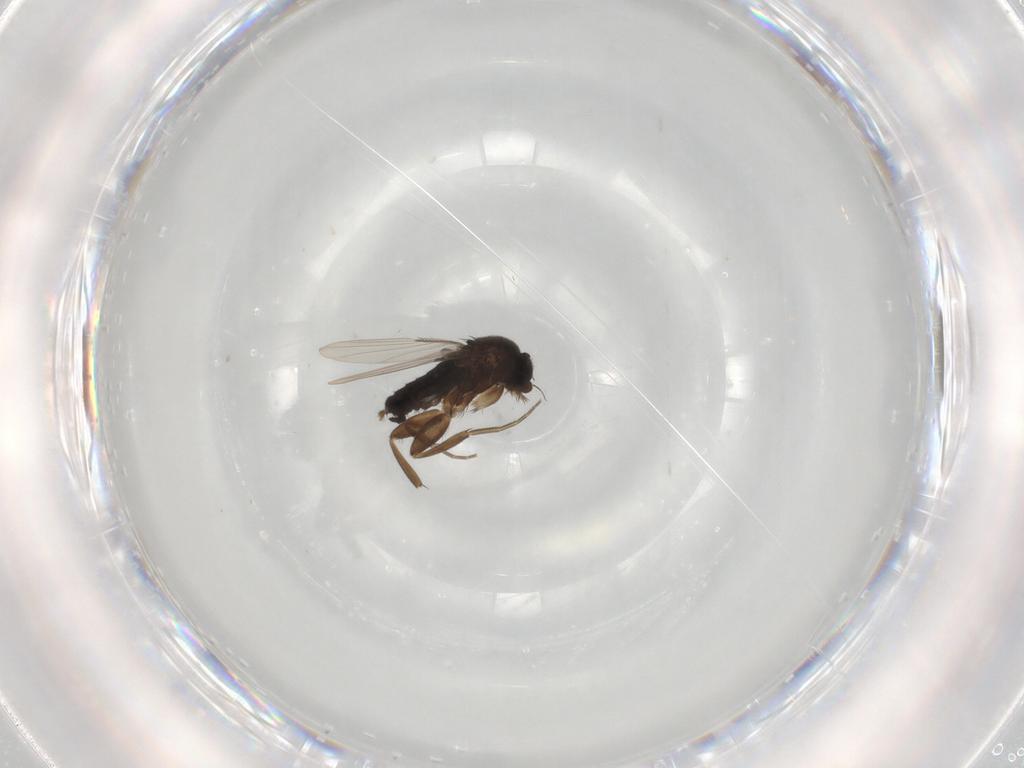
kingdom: Animalia
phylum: Arthropoda
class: Insecta
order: Diptera
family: Phoridae
